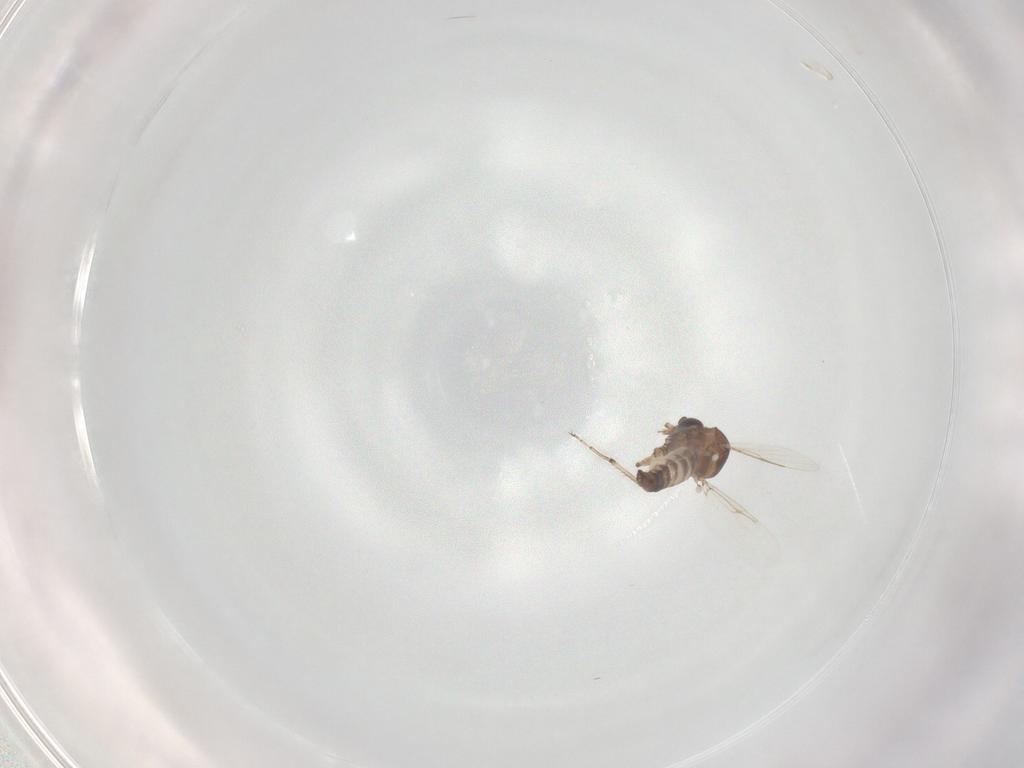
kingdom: Animalia
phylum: Arthropoda
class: Insecta
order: Diptera
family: Ceratopogonidae
